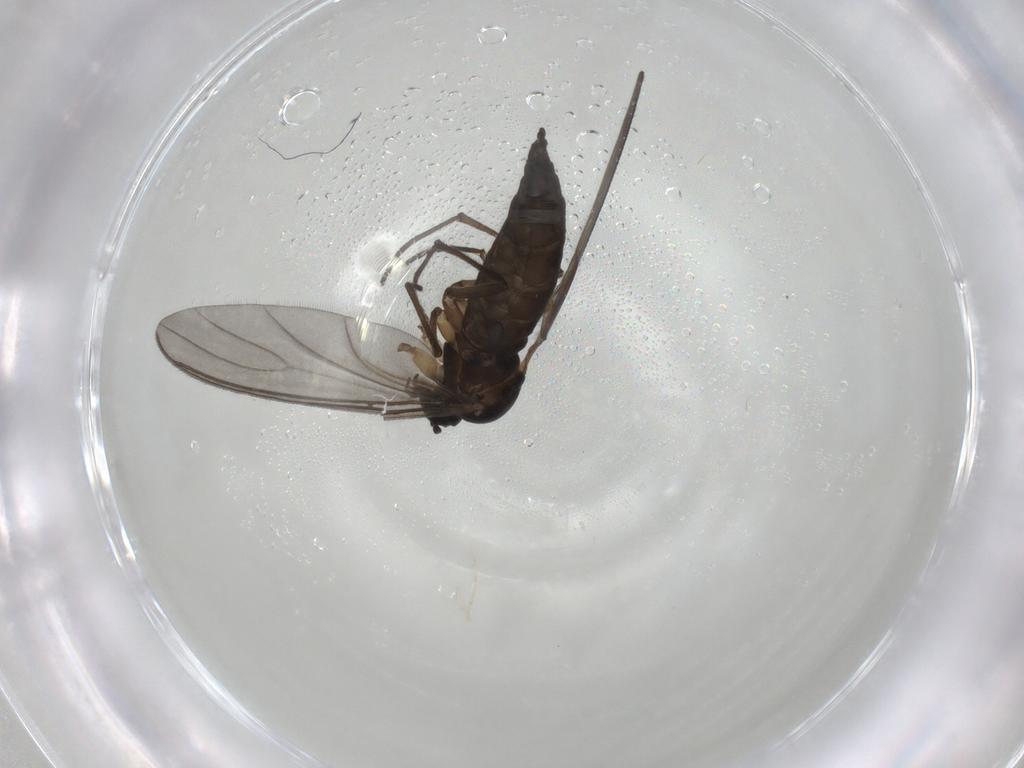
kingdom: Animalia
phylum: Arthropoda
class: Insecta
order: Diptera
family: Sciaridae
